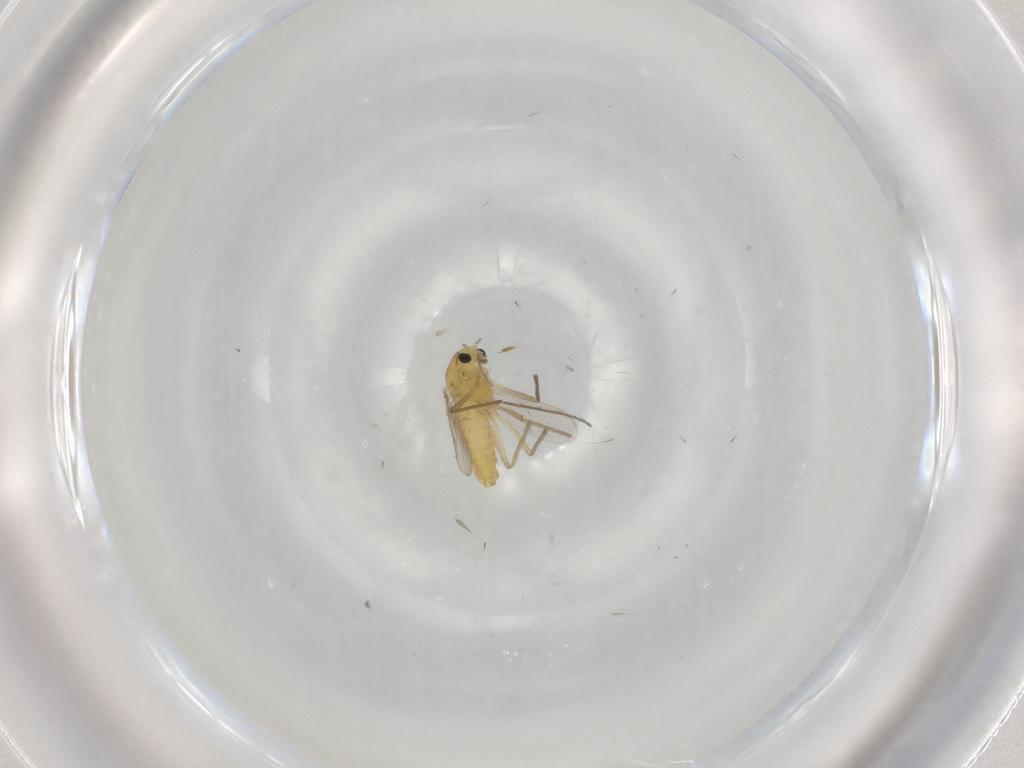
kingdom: Animalia
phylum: Arthropoda
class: Insecta
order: Diptera
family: Chironomidae
